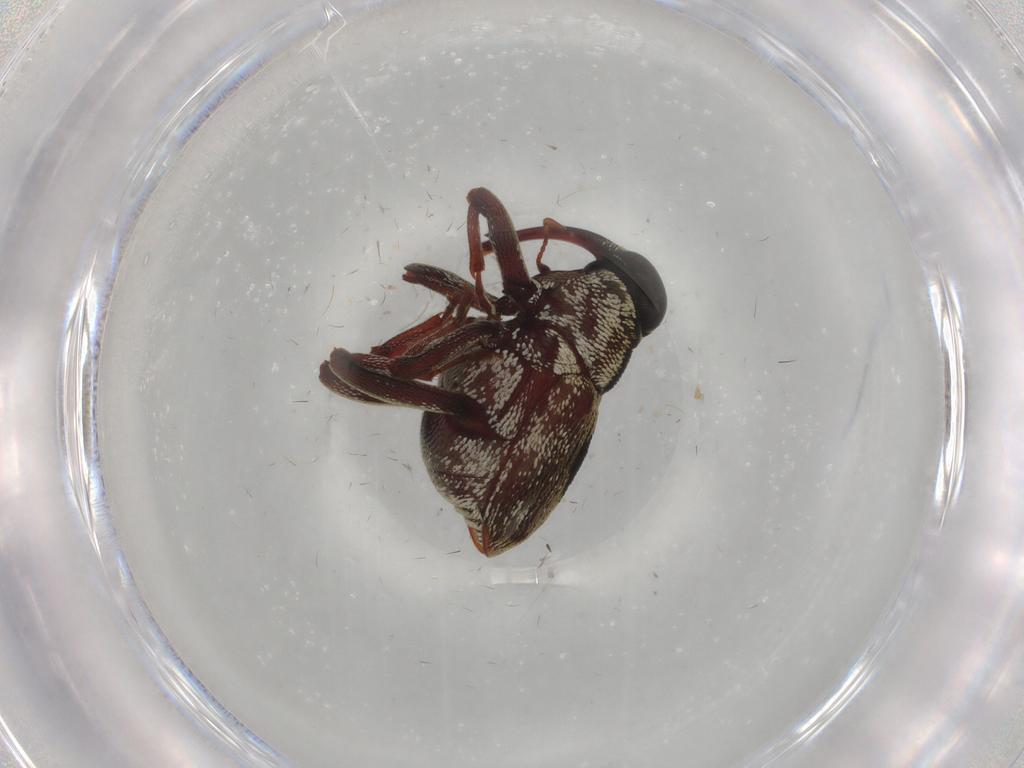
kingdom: Animalia
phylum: Arthropoda
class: Insecta
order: Coleoptera
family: Curculionidae
